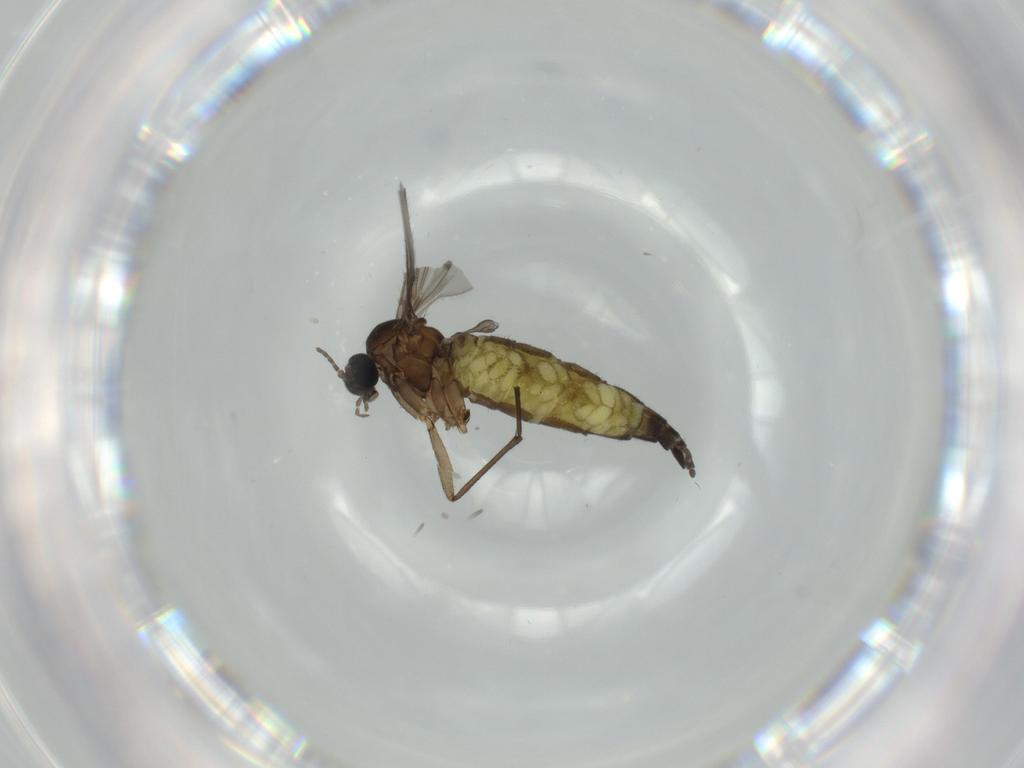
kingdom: Animalia
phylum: Arthropoda
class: Insecta
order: Diptera
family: Sciaridae
